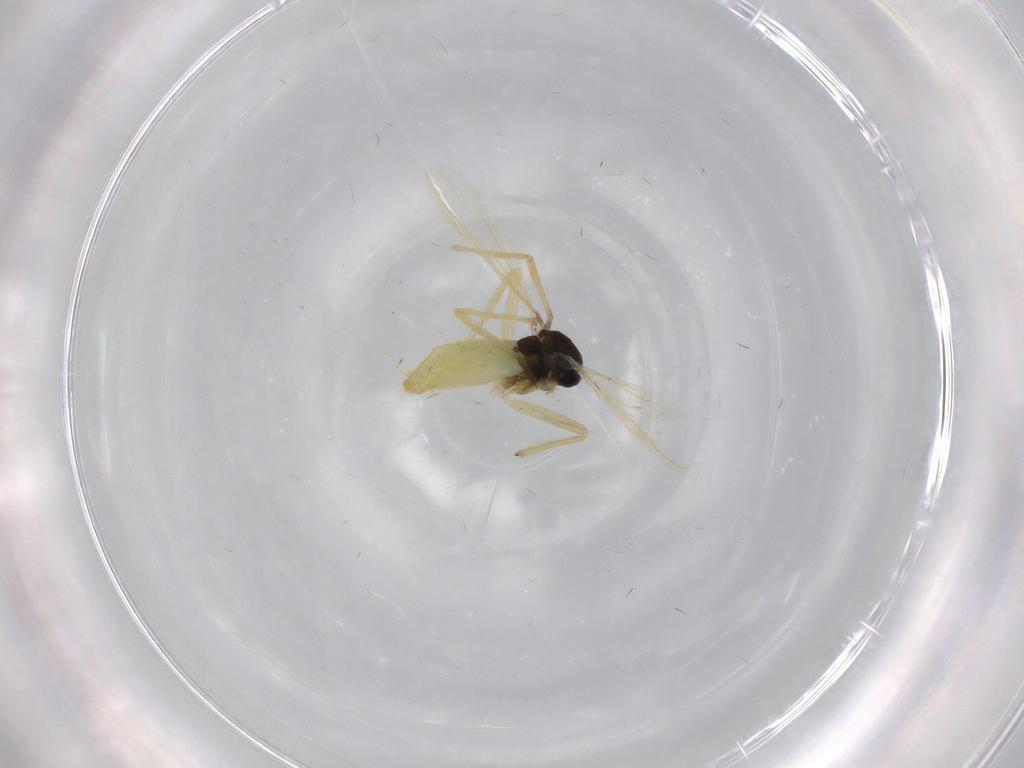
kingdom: Animalia
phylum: Arthropoda
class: Insecta
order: Diptera
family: Chironomidae
